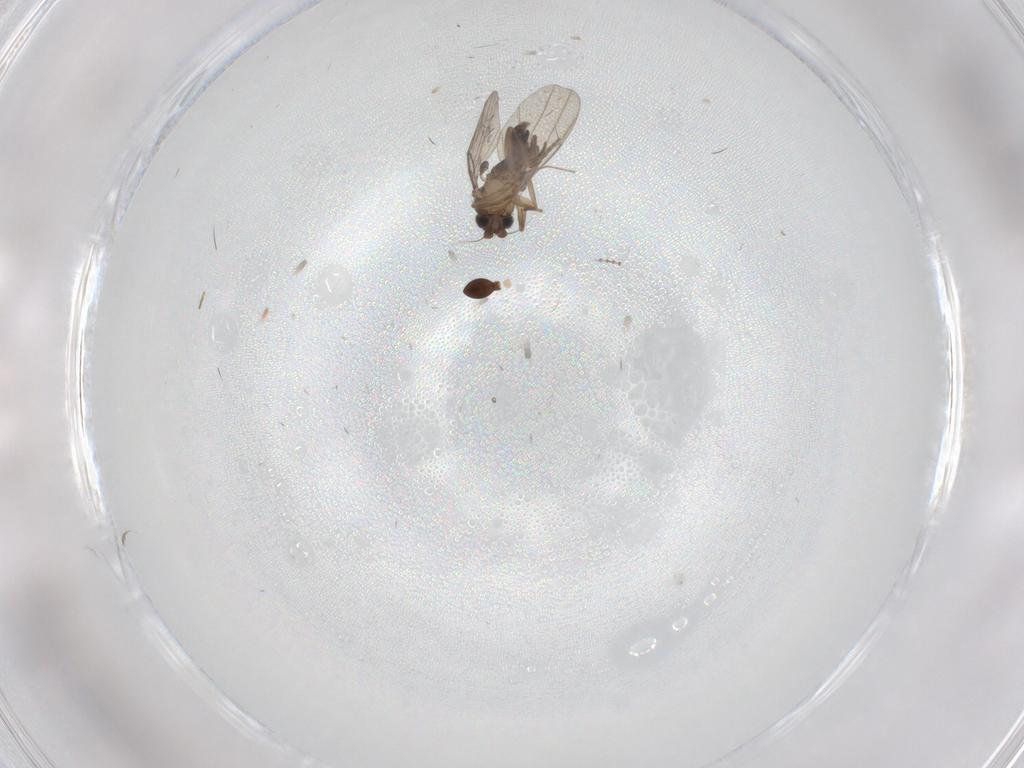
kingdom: Animalia
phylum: Arthropoda
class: Insecta
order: Diptera
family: Phoridae
